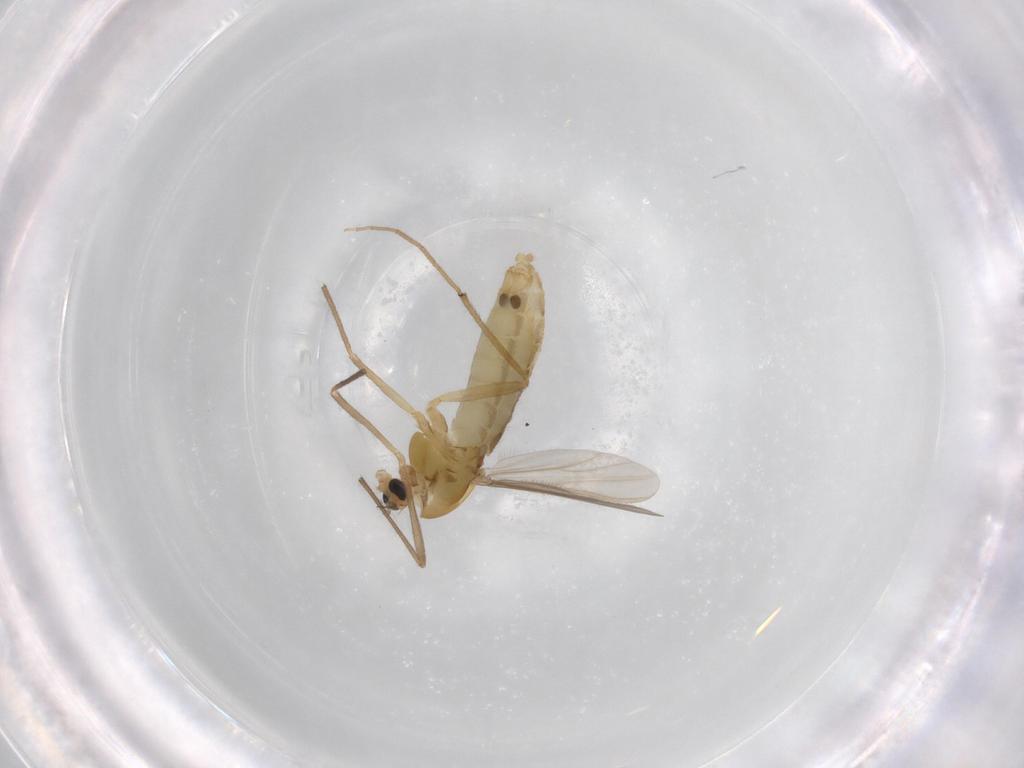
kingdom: Animalia
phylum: Arthropoda
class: Insecta
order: Diptera
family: Chironomidae
